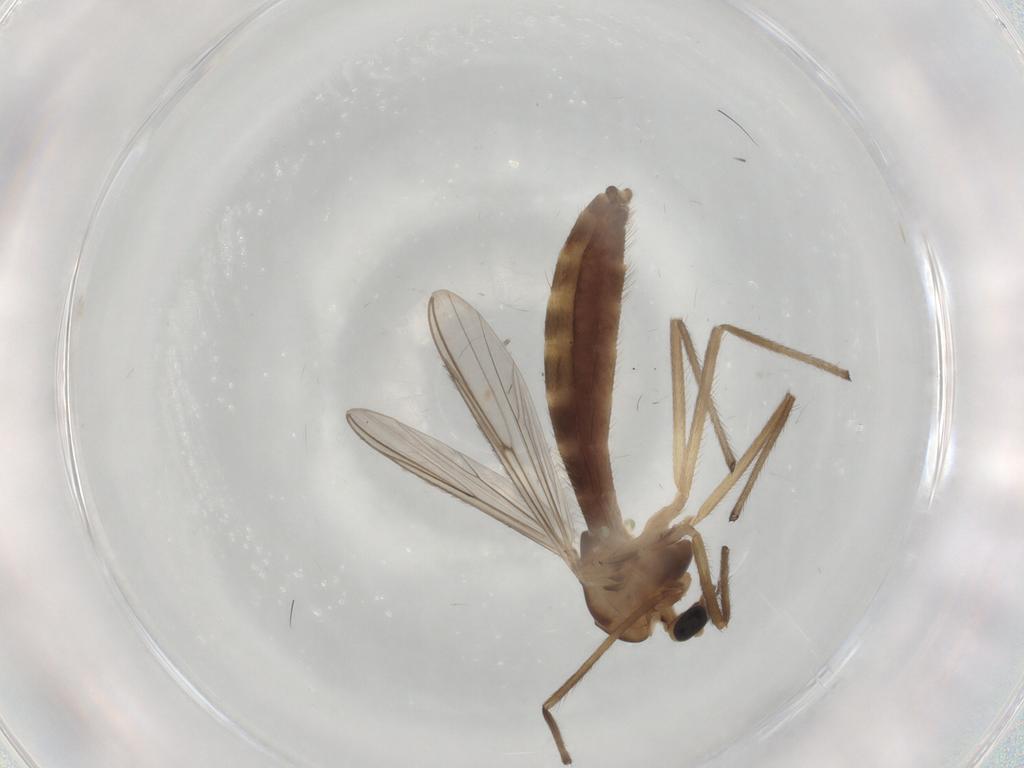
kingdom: Animalia
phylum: Arthropoda
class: Insecta
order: Diptera
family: Chironomidae
